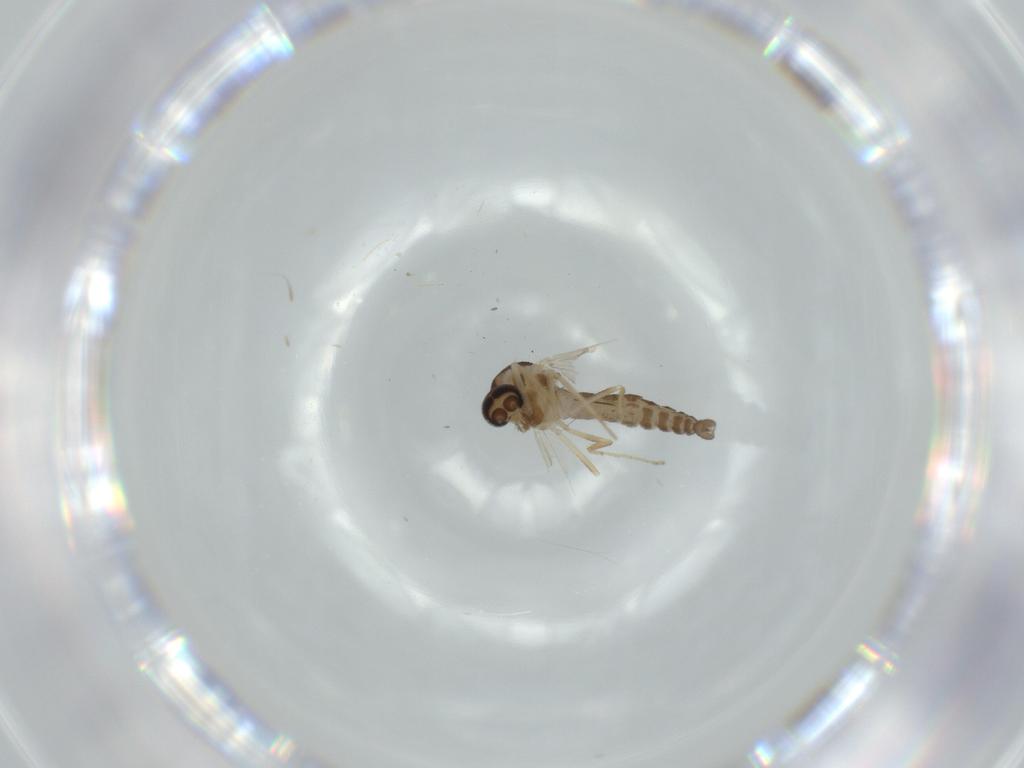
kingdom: Animalia
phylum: Arthropoda
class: Insecta
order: Diptera
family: Ceratopogonidae
